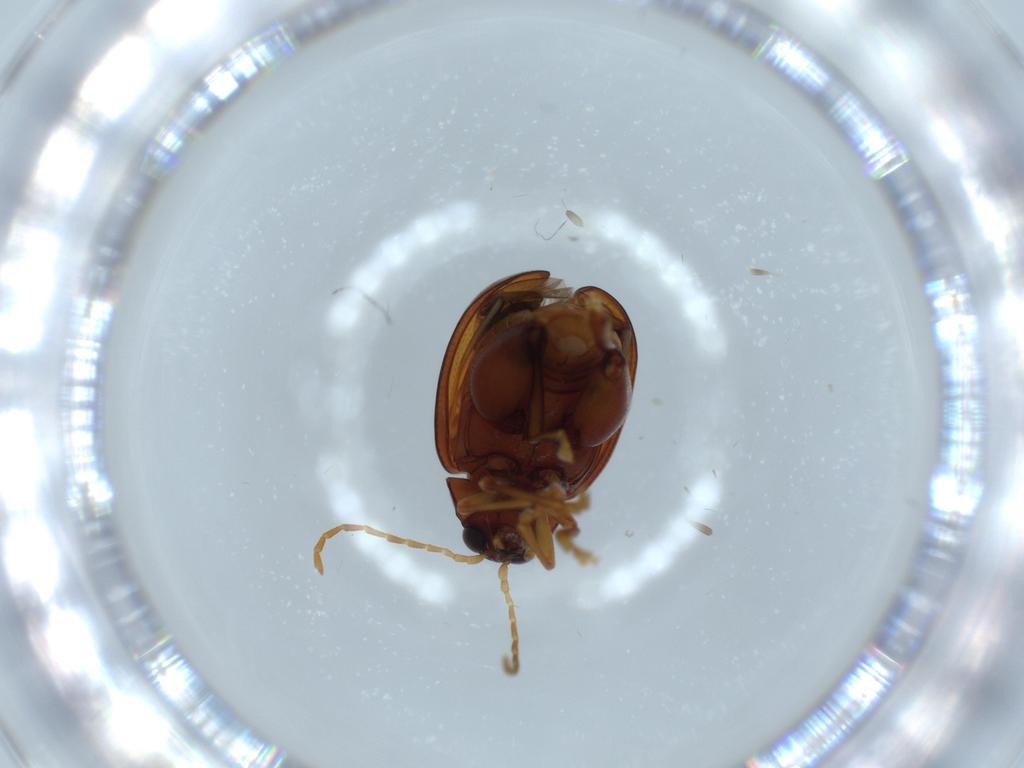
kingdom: Animalia
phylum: Arthropoda
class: Insecta
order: Coleoptera
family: Chrysomelidae
